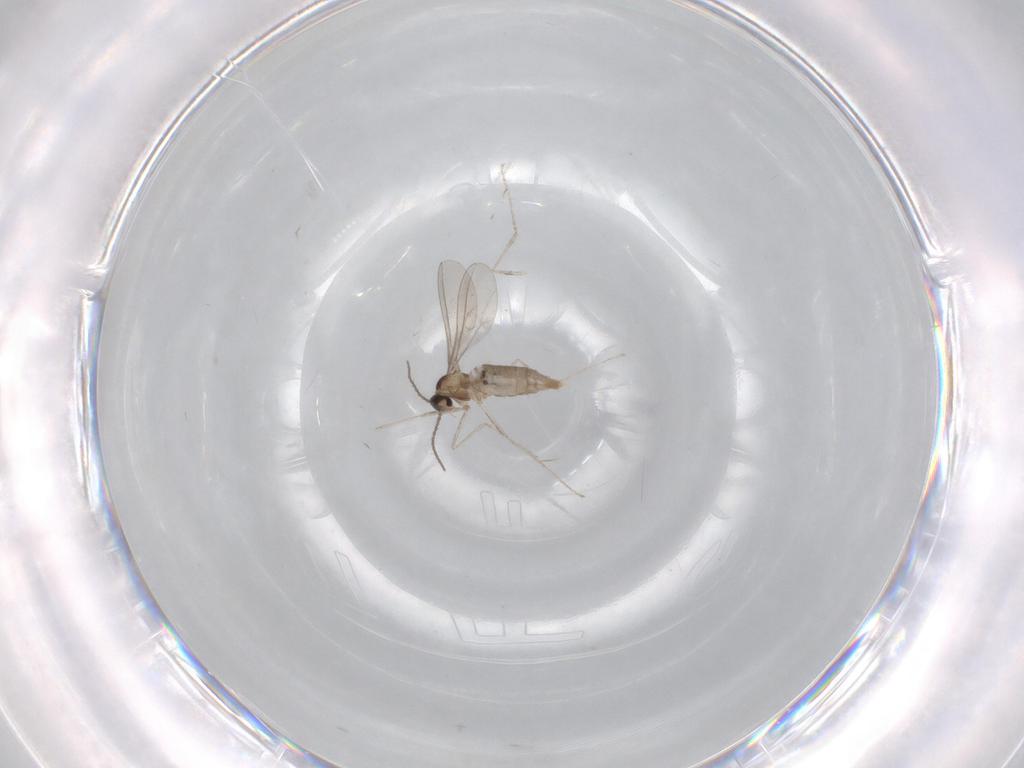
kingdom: Animalia
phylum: Arthropoda
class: Insecta
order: Diptera
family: Cecidomyiidae
